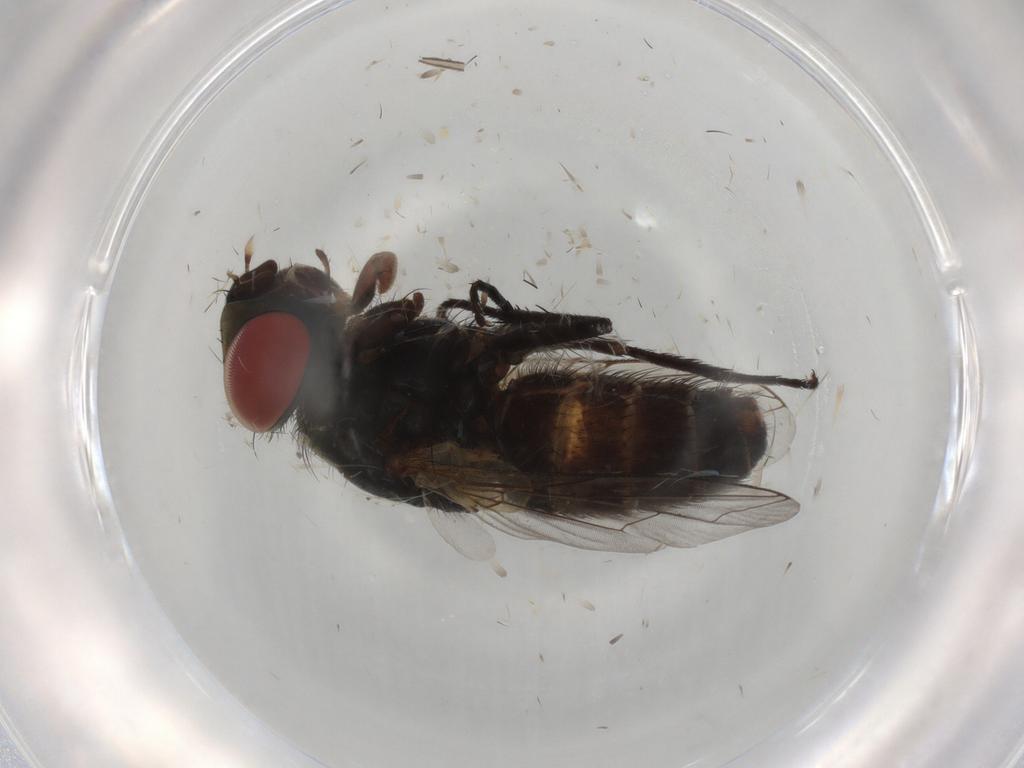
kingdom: Animalia
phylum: Arthropoda
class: Insecta
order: Diptera
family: Sarcophagidae
